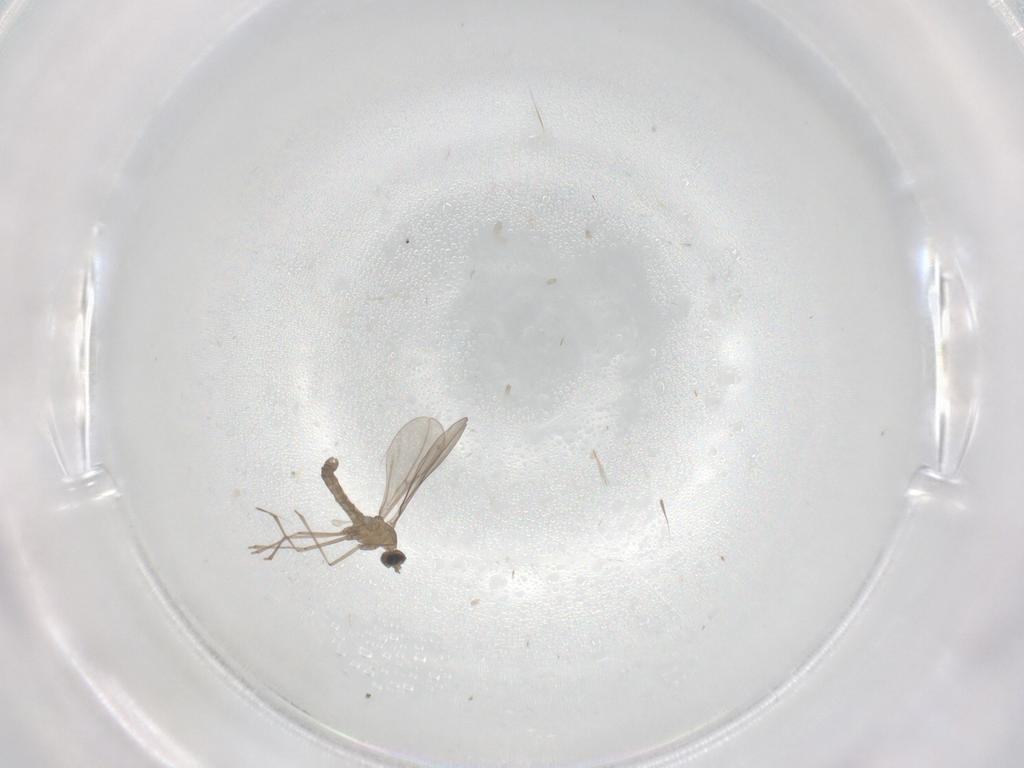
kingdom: Animalia
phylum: Arthropoda
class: Insecta
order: Diptera
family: Cecidomyiidae
